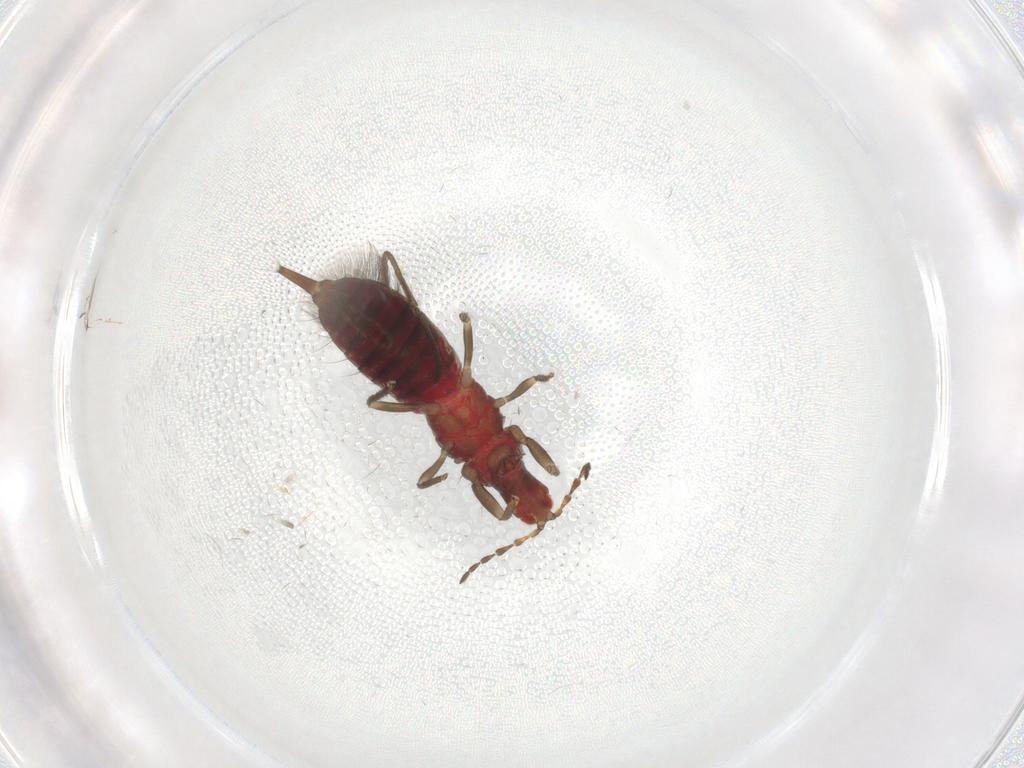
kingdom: Animalia
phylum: Arthropoda
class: Insecta
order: Thysanoptera
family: Phlaeothripidae
